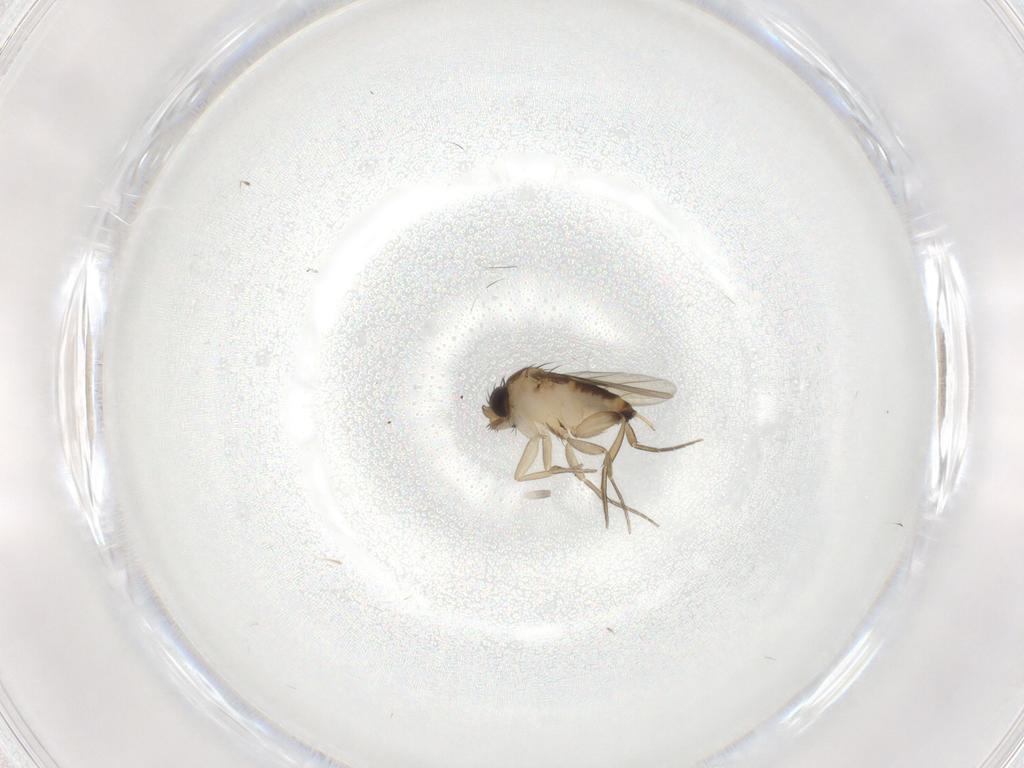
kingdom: Animalia
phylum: Arthropoda
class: Insecta
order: Diptera
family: Phoridae
